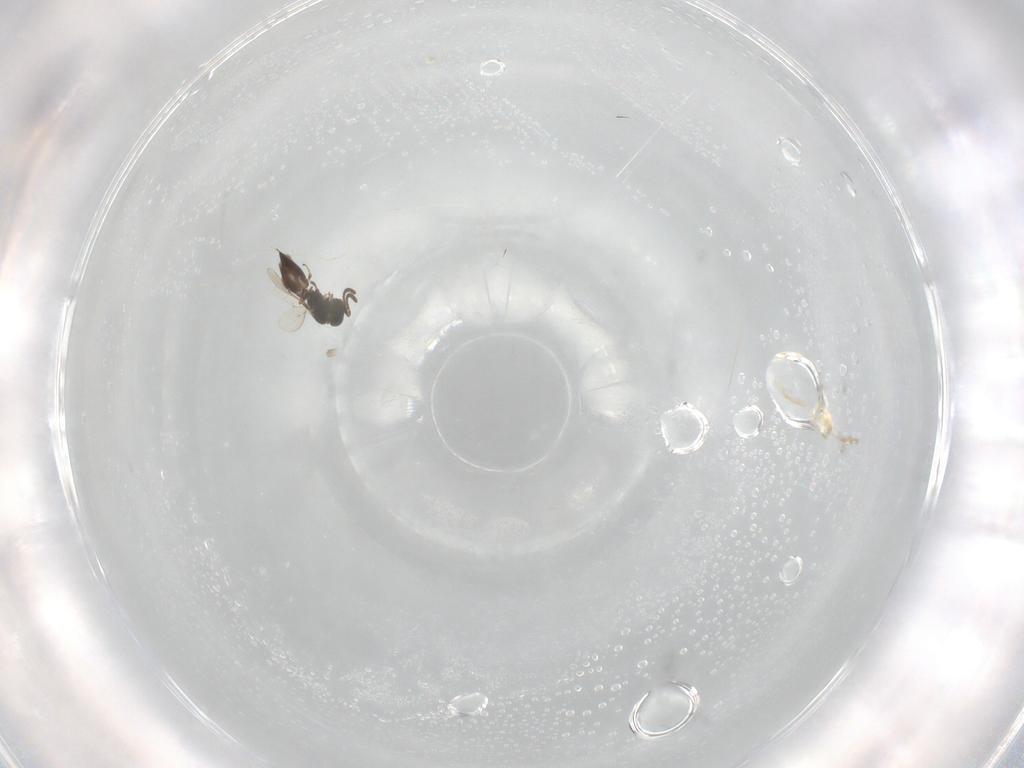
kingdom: Animalia
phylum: Arthropoda
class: Insecta
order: Hymenoptera
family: Scelionidae
